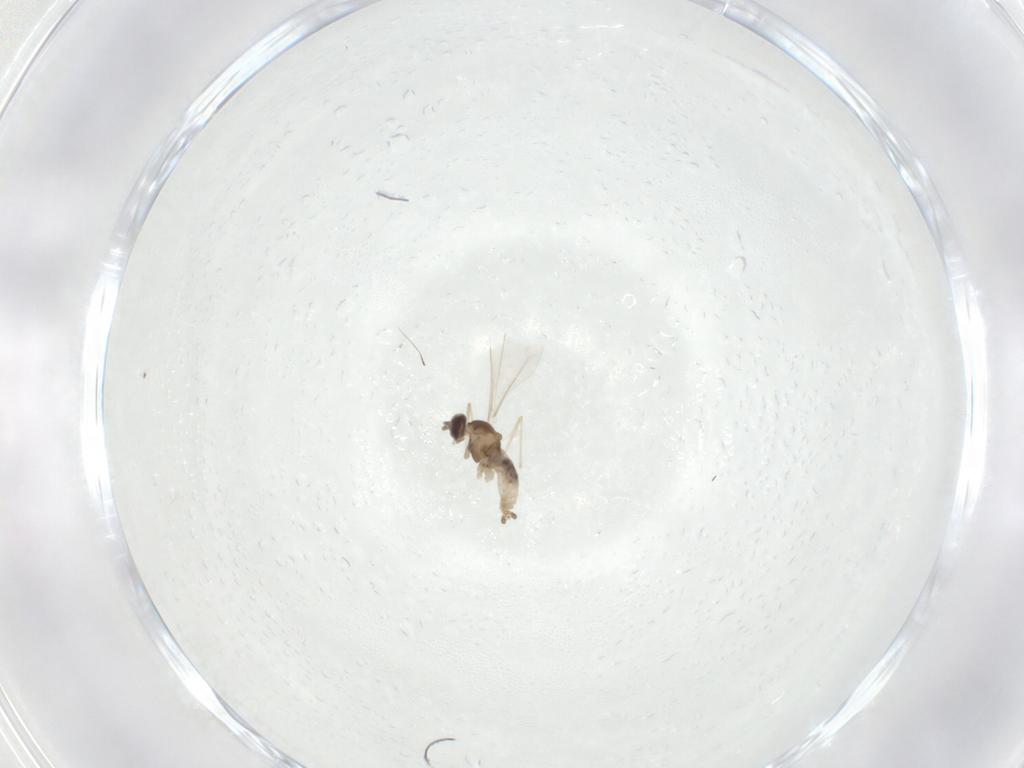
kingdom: Animalia
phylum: Arthropoda
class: Insecta
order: Diptera
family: Cecidomyiidae
